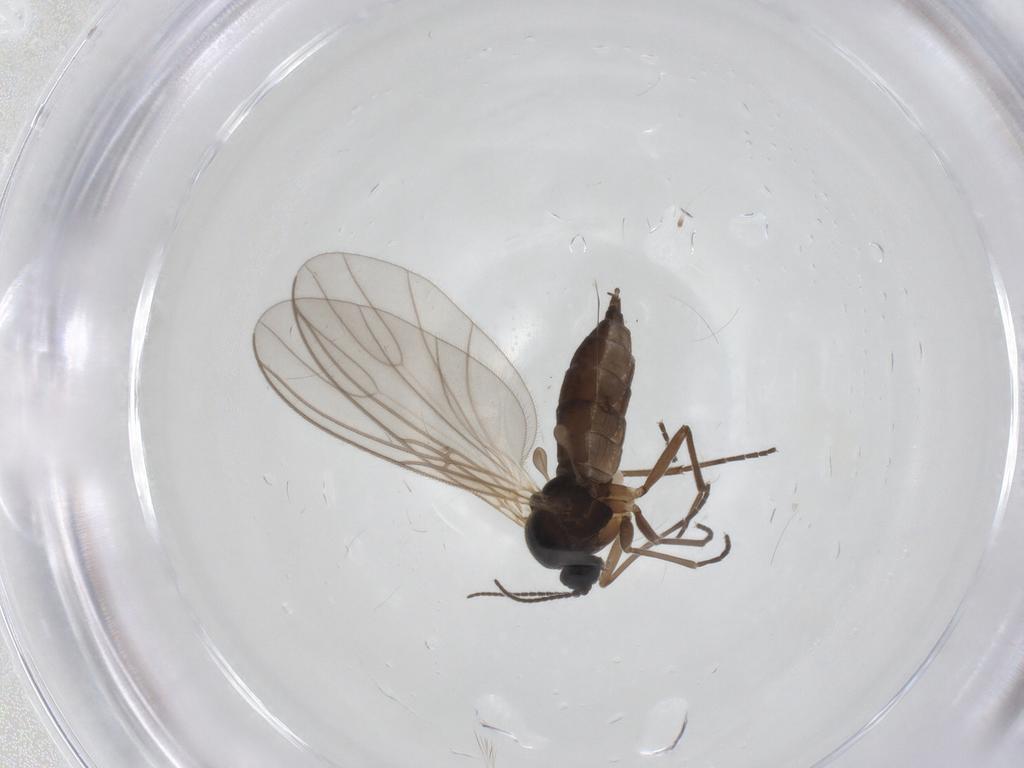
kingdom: Animalia
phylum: Arthropoda
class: Insecta
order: Diptera
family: Sciaridae
